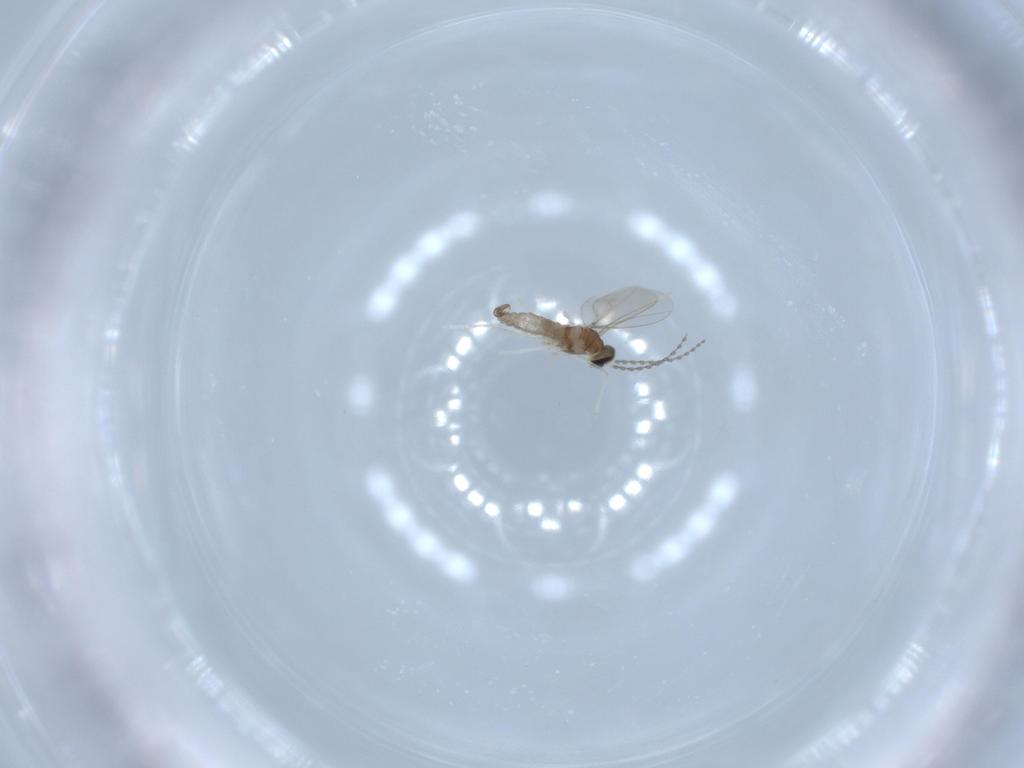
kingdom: Animalia
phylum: Arthropoda
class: Insecta
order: Diptera
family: Cecidomyiidae
